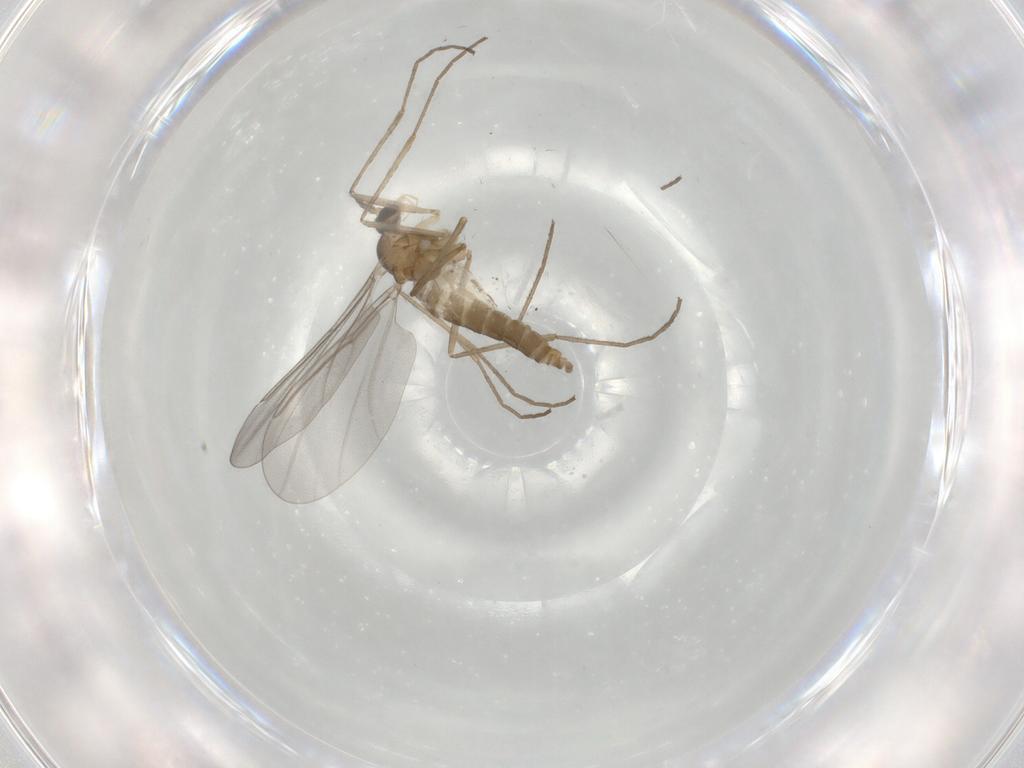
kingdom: Animalia
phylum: Arthropoda
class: Insecta
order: Diptera
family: Cecidomyiidae
